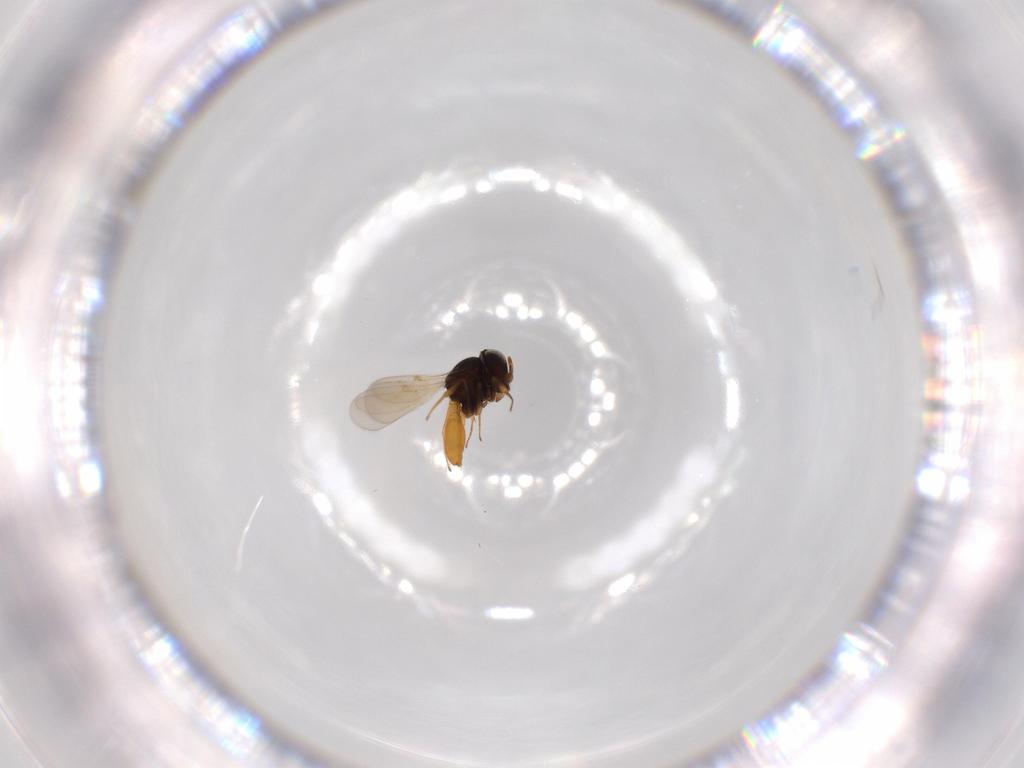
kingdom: Animalia
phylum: Arthropoda
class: Insecta
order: Hymenoptera
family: Scelionidae
